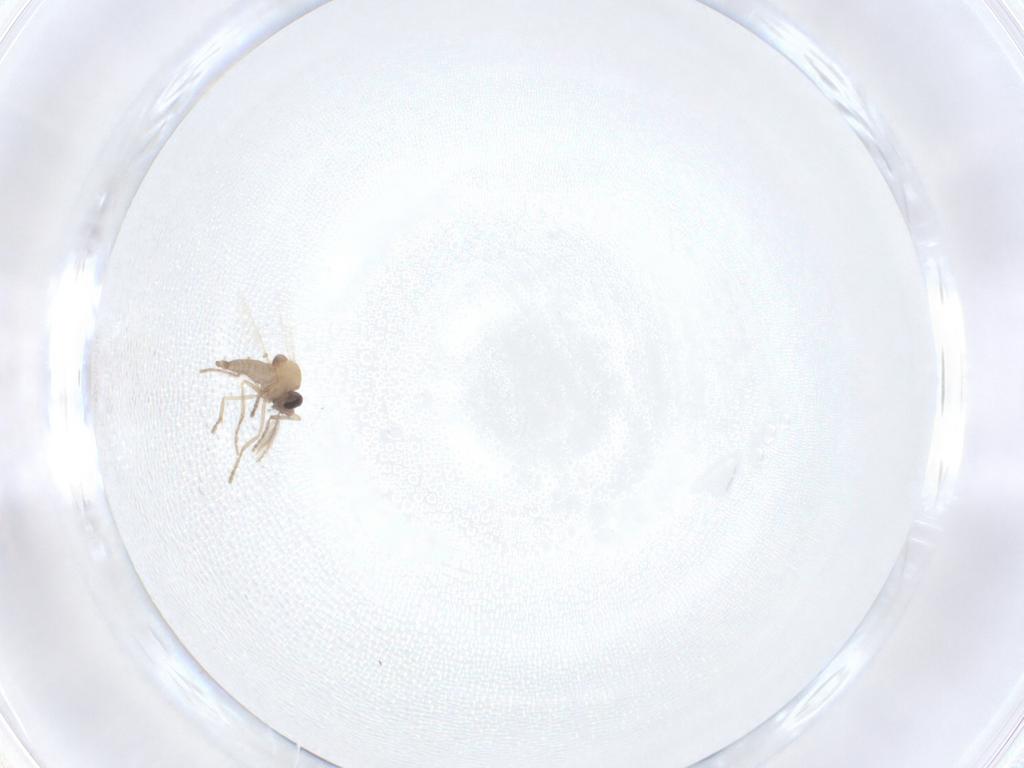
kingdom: Animalia
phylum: Arthropoda
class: Insecta
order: Diptera
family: Ceratopogonidae
